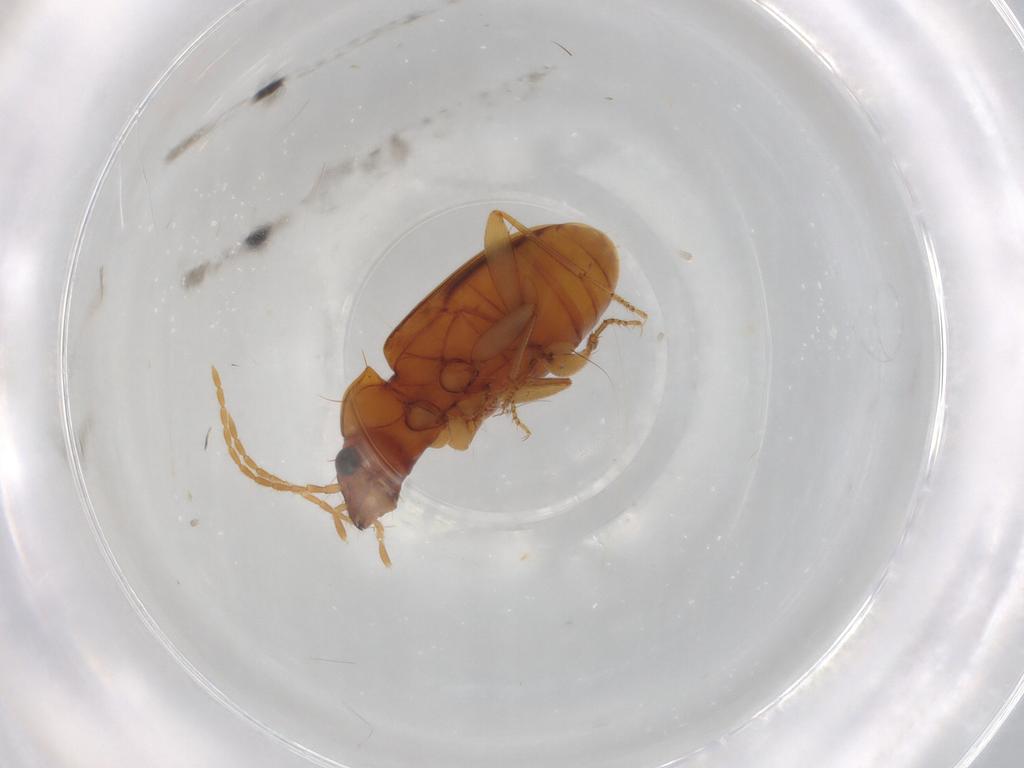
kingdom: Animalia
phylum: Arthropoda
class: Insecta
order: Coleoptera
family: Carabidae
